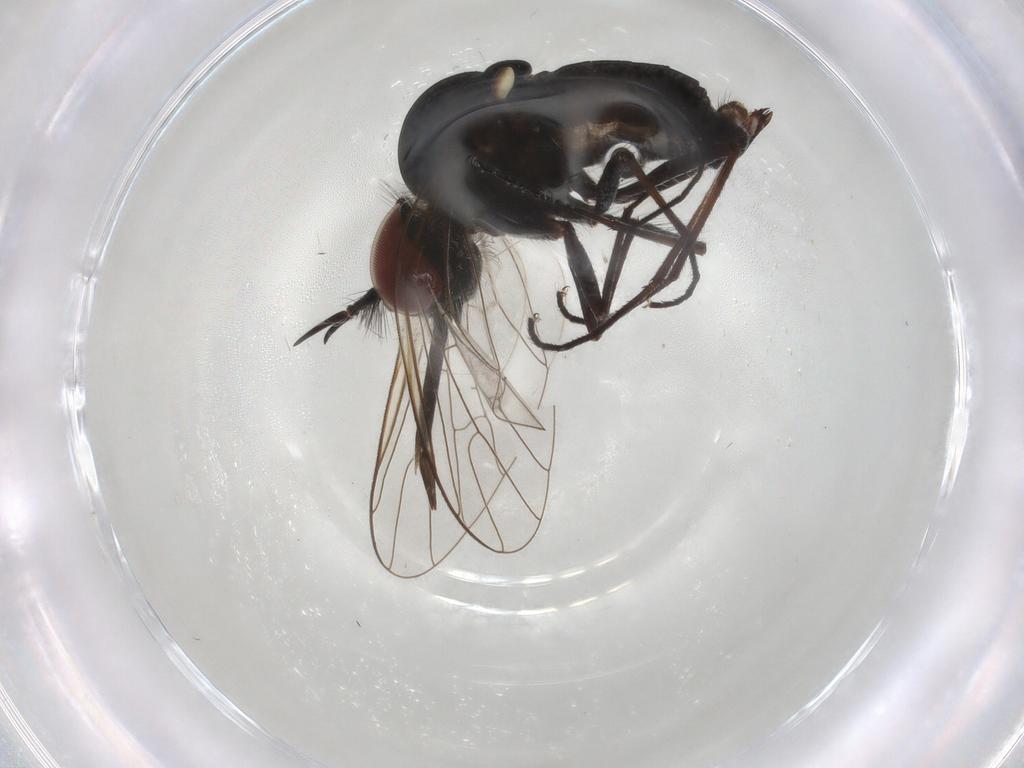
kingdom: Animalia
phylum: Arthropoda
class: Insecta
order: Diptera
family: Bombyliidae
